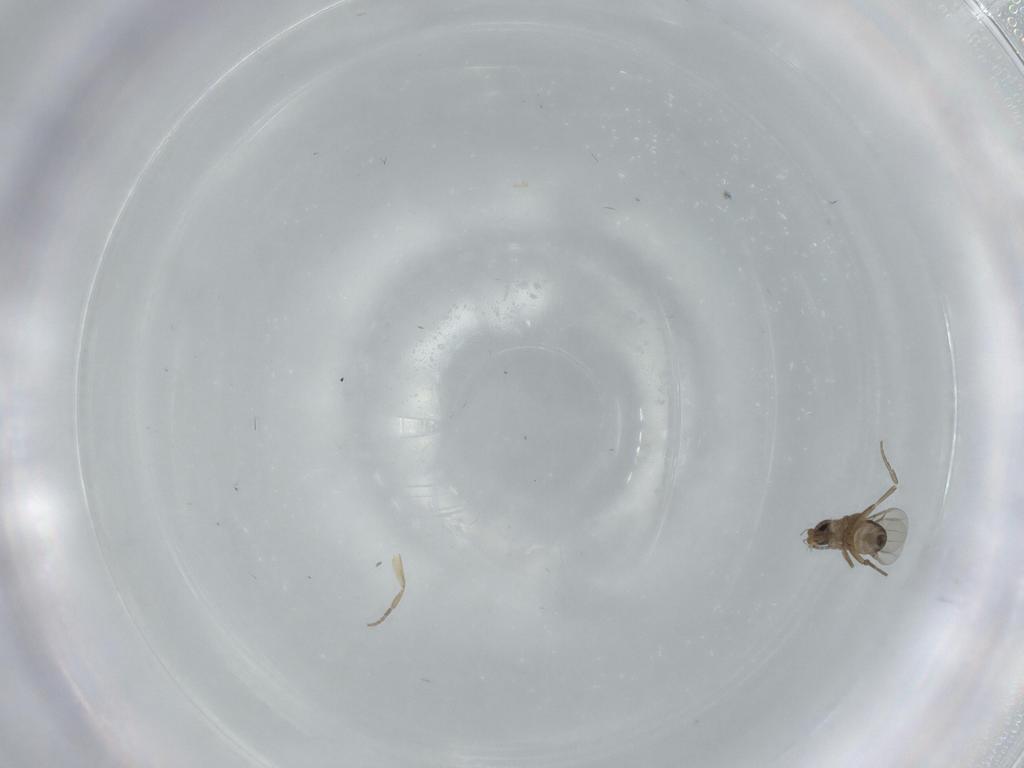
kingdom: Animalia
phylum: Arthropoda
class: Insecta
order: Diptera
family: Phoridae
